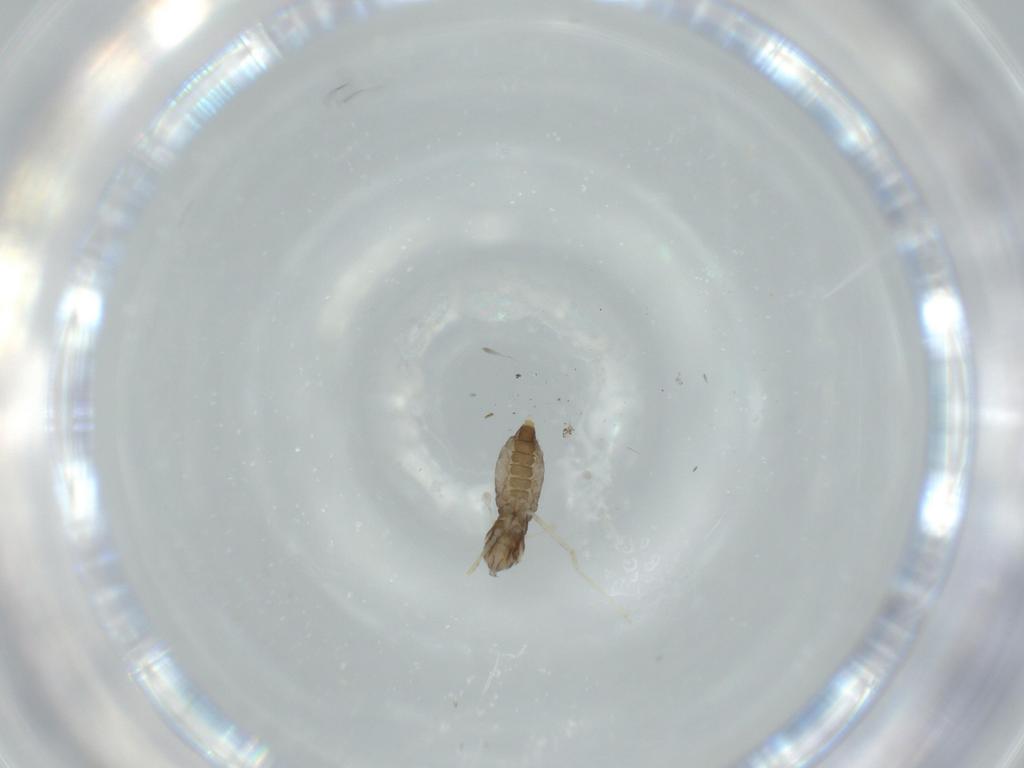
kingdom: Animalia
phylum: Arthropoda
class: Insecta
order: Diptera
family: Cecidomyiidae
